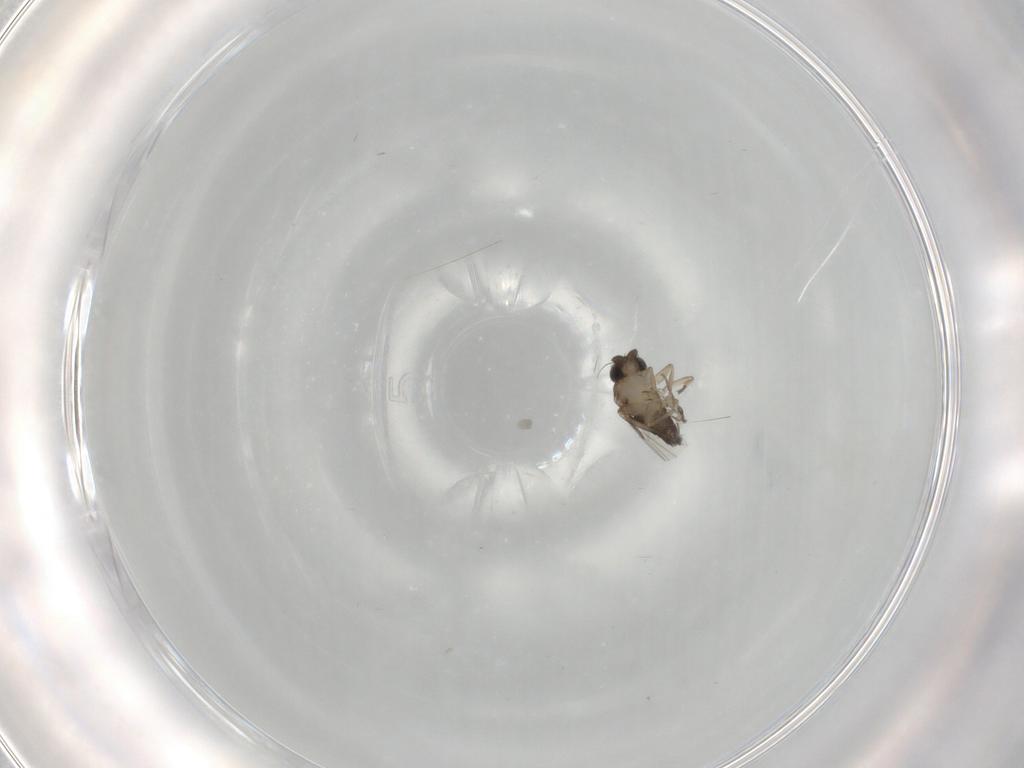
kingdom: Animalia
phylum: Arthropoda
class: Insecta
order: Diptera
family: Phoridae
